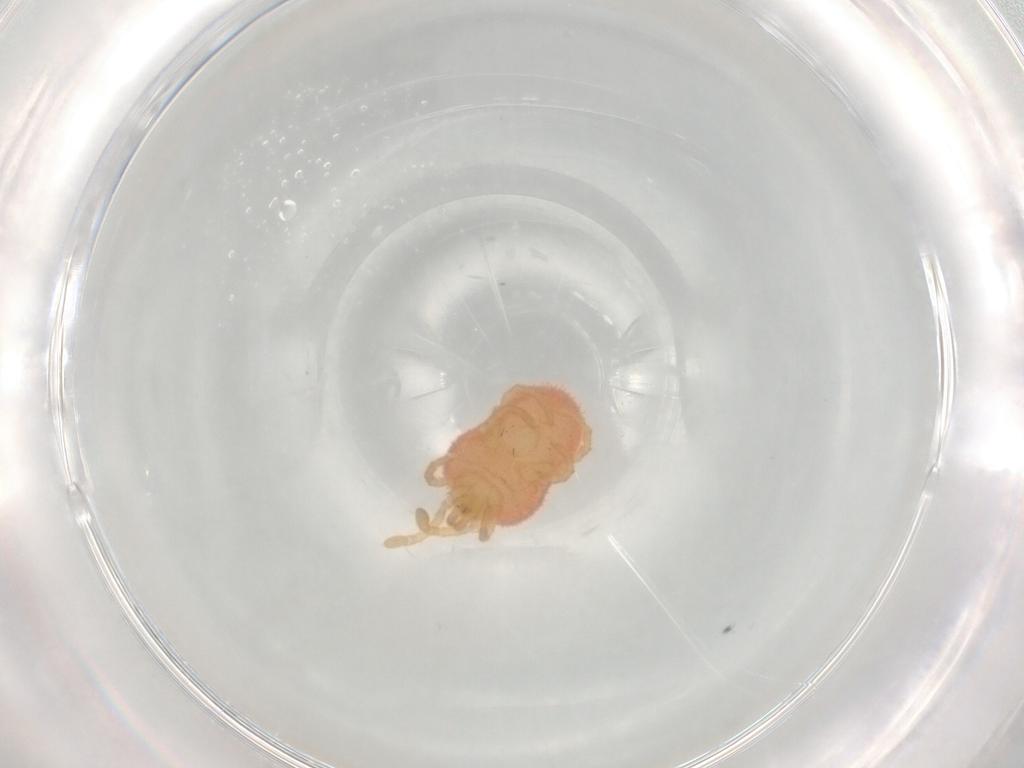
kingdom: Animalia
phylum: Arthropoda
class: Arachnida
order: Trombidiformes
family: Trombidiidae
